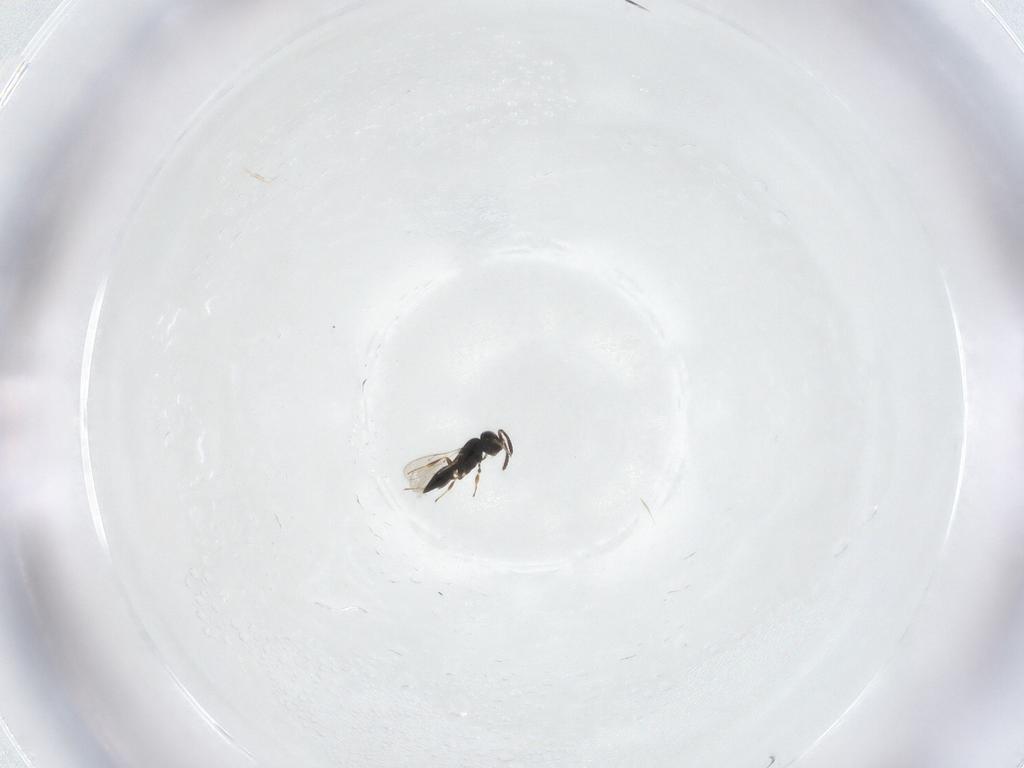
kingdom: Animalia
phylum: Arthropoda
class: Insecta
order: Hymenoptera
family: Scelionidae
